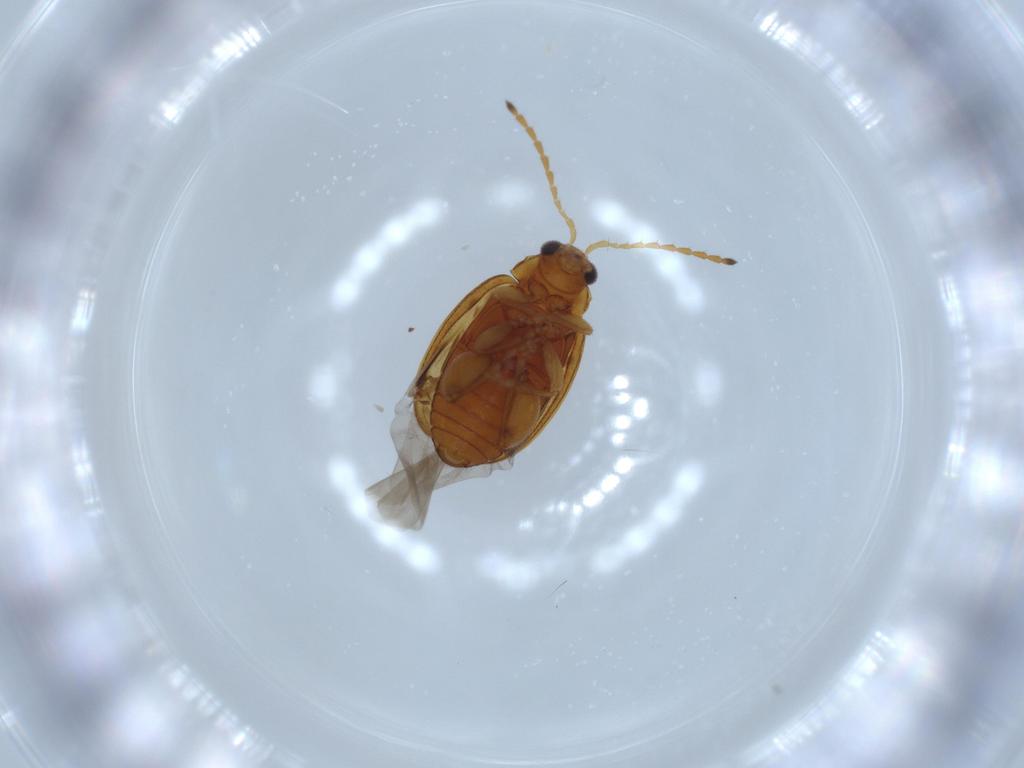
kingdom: Animalia
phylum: Arthropoda
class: Insecta
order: Coleoptera
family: Chrysomelidae
